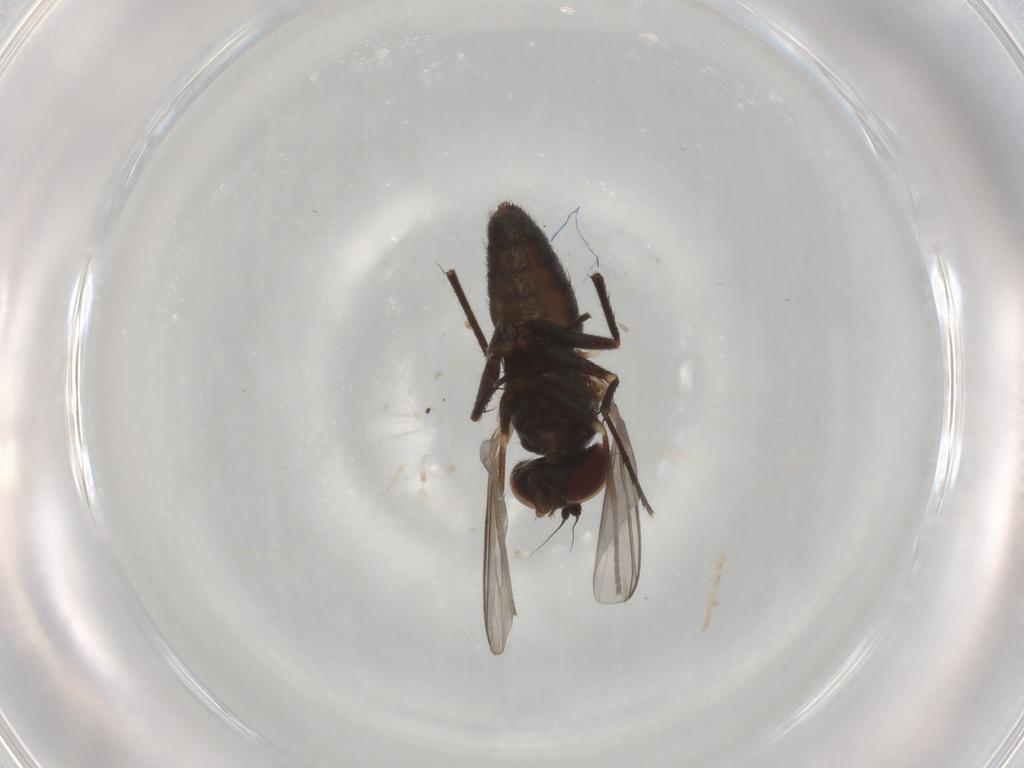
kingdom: Animalia
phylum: Arthropoda
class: Insecta
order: Diptera
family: Dolichopodidae
